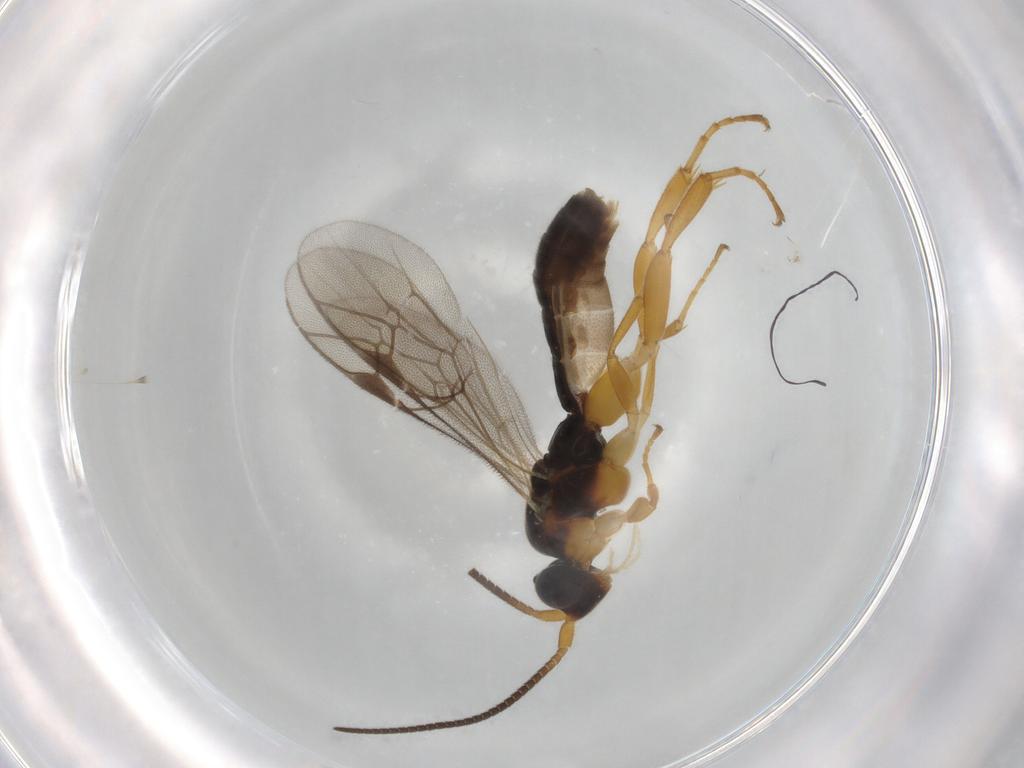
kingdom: Animalia
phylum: Arthropoda
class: Insecta
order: Hymenoptera
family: Ichneumonidae
